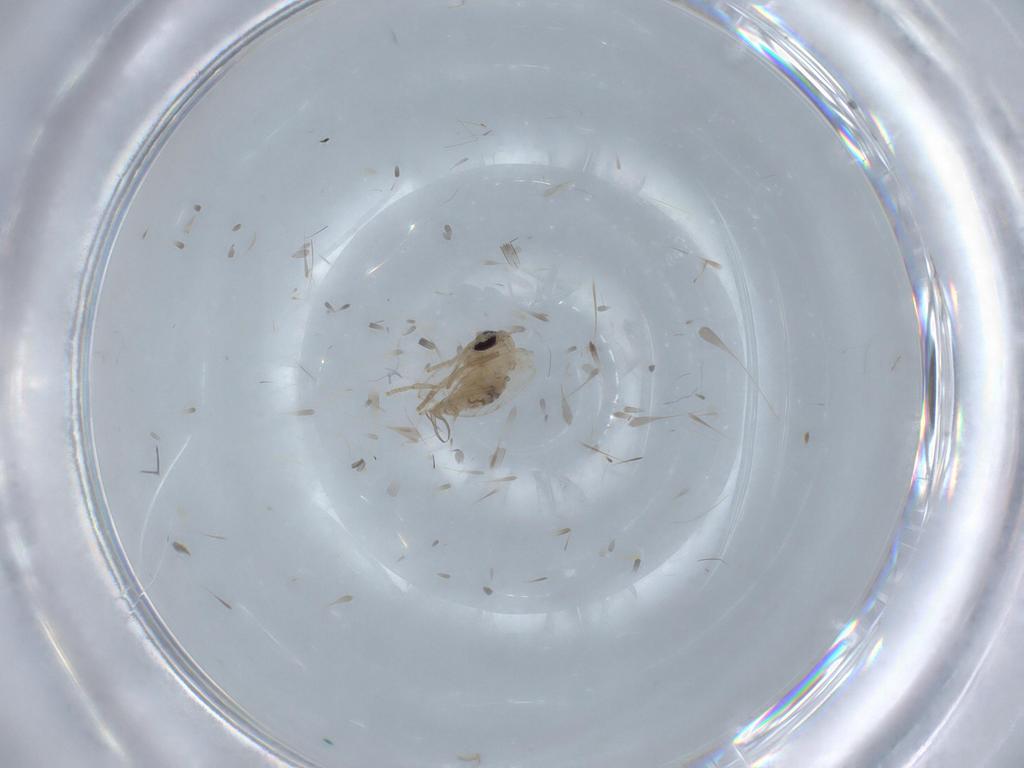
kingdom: Animalia
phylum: Arthropoda
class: Insecta
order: Diptera
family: Psychodidae
